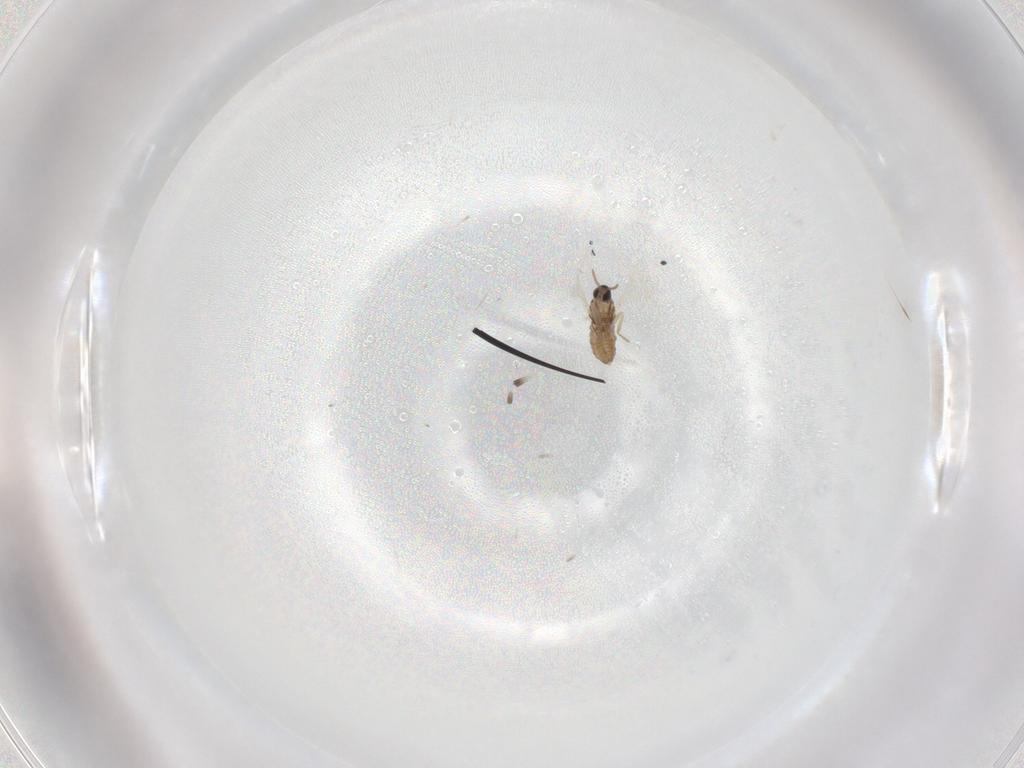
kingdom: Animalia
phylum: Arthropoda
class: Insecta
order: Diptera
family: Cecidomyiidae
